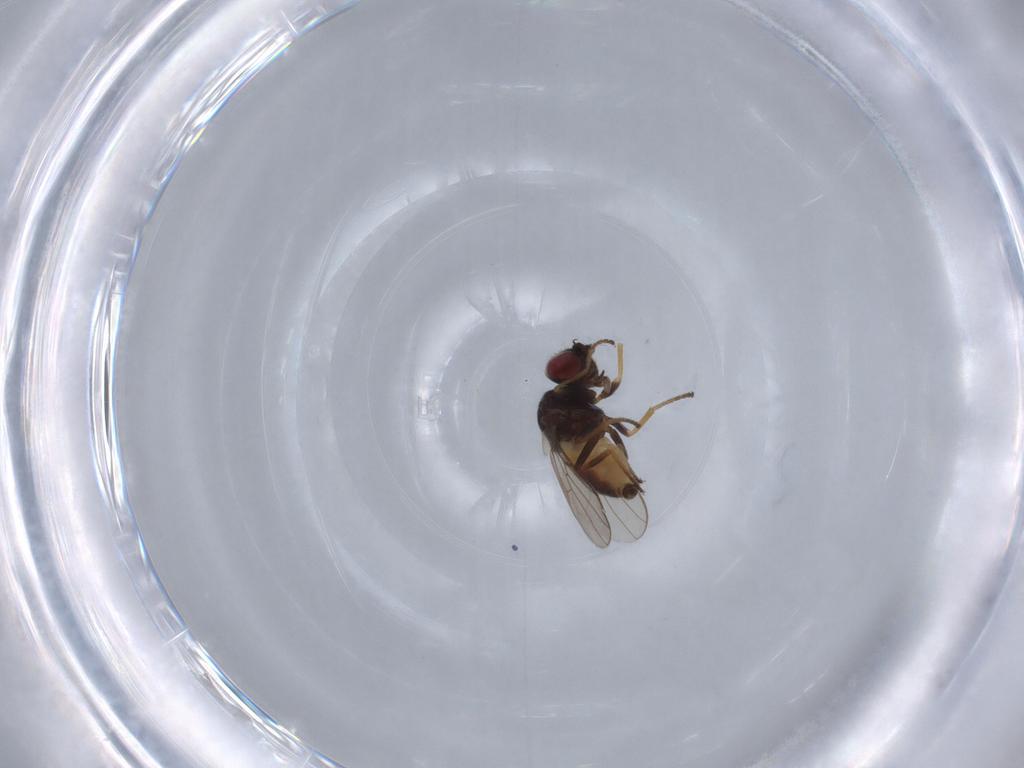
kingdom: Animalia
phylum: Arthropoda
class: Insecta
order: Diptera
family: Chloropidae
